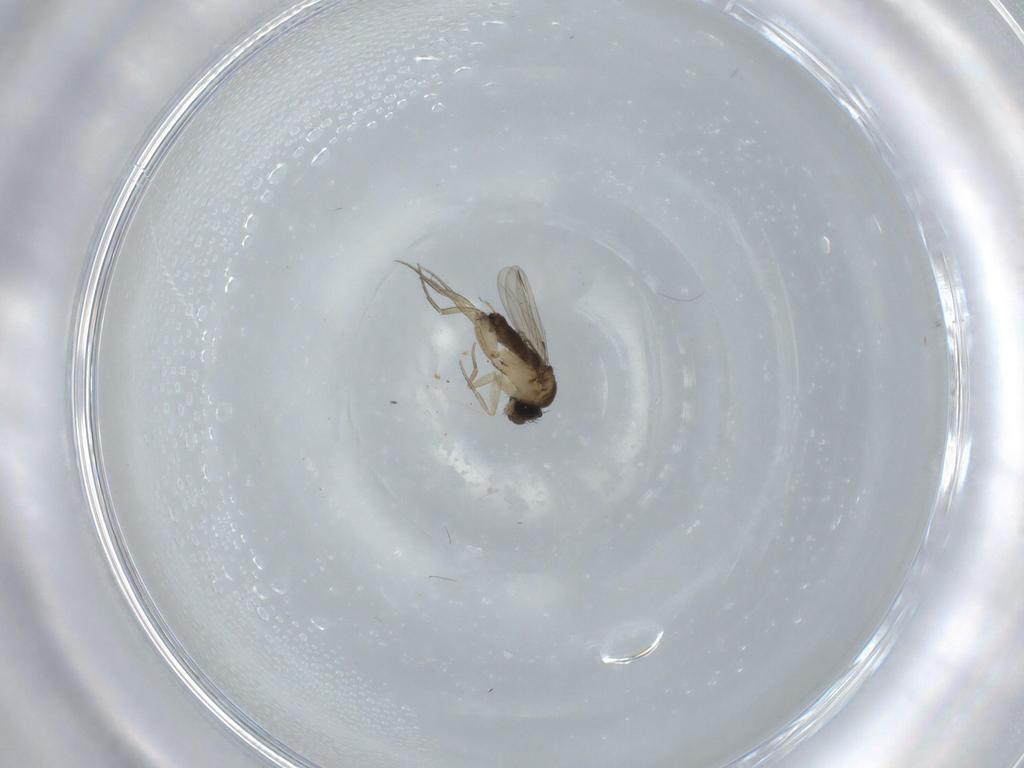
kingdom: Animalia
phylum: Arthropoda
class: Insecta
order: Diptera
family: Phoridae
